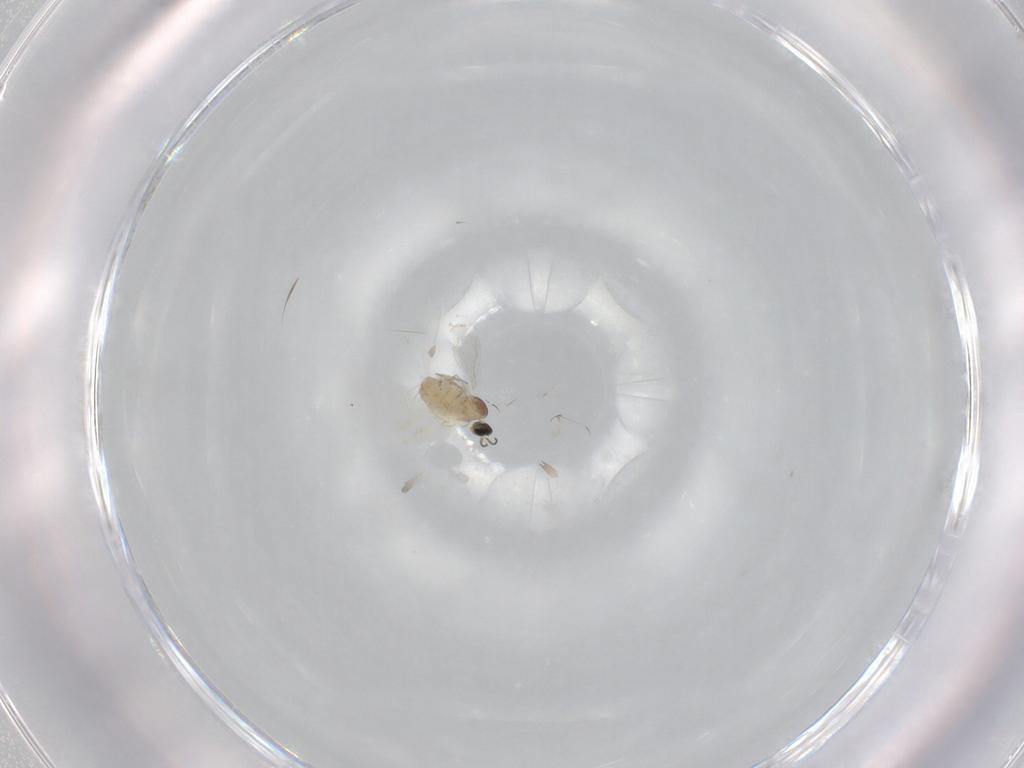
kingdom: Animalia
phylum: Arthropoda
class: Insecta
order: Diptera
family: Cecidomyiidae
